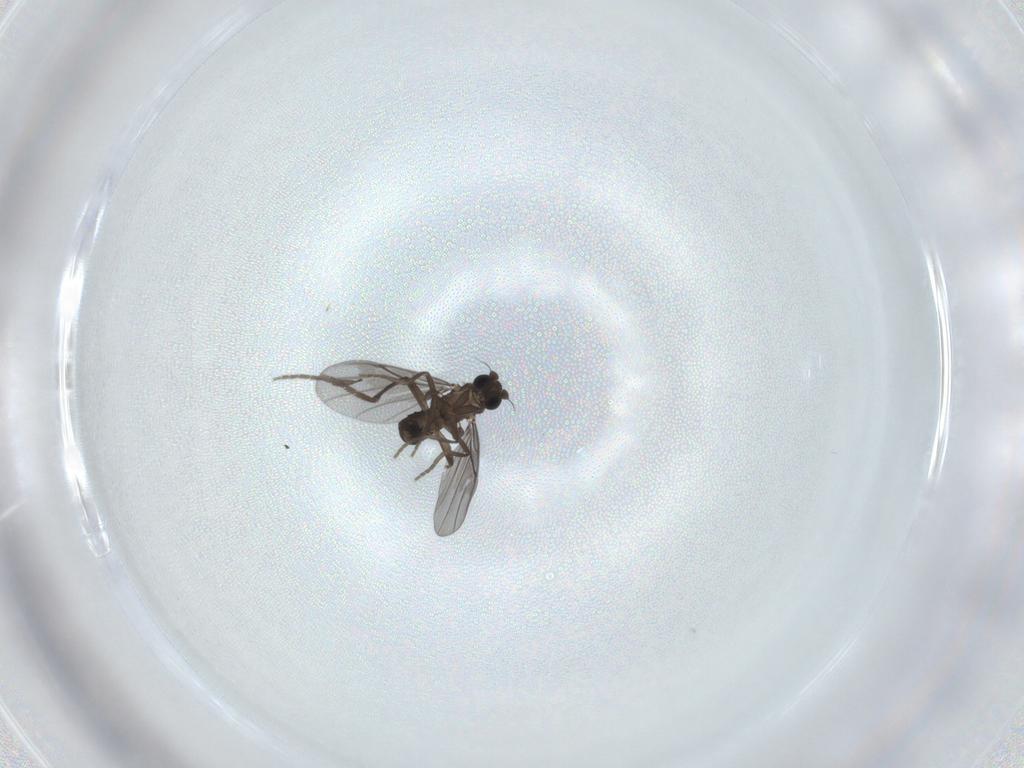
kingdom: Animalia
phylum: Arthropoda
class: Insecta
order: Diptera
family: Phoridae
